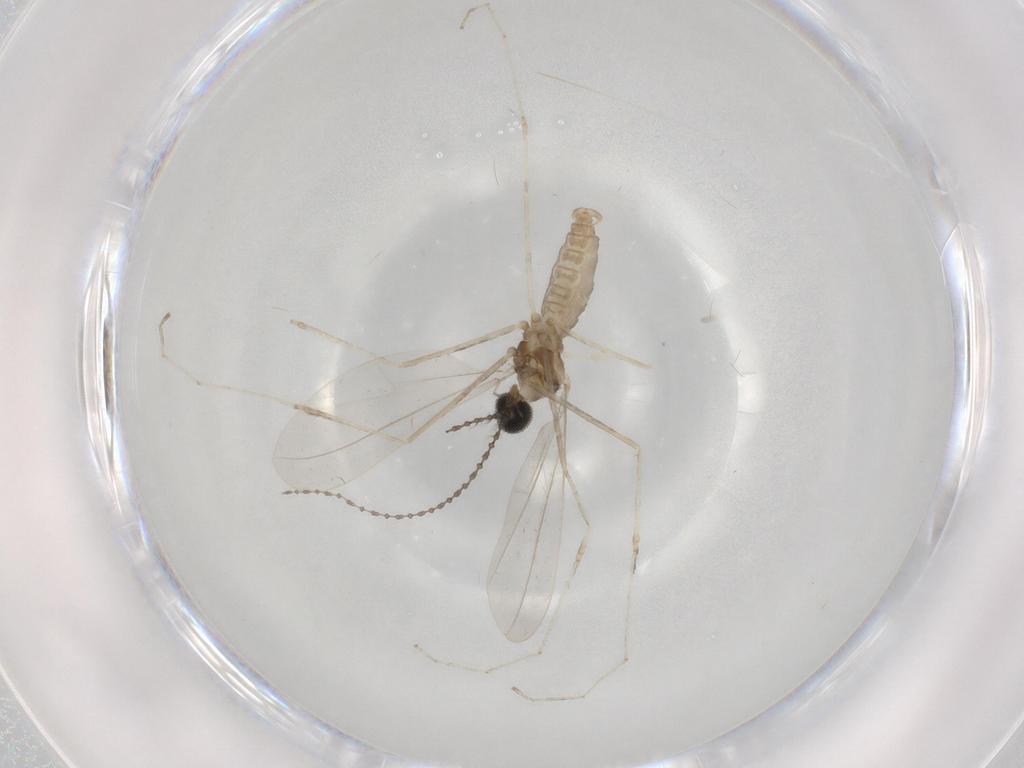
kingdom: Animalia
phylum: Arthropoda
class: Insecta
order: Diptera
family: Cecidomyiidae
